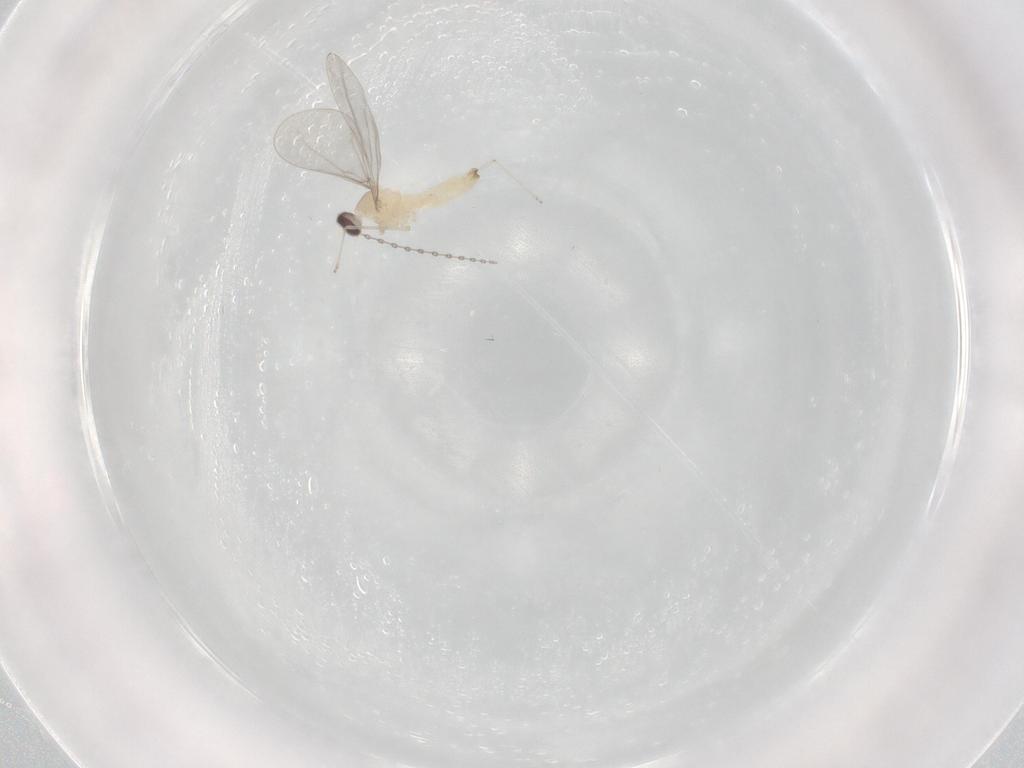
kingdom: Animalia
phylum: Arthropoda
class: Insecta
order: Diptera
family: Cecidomyiidae
